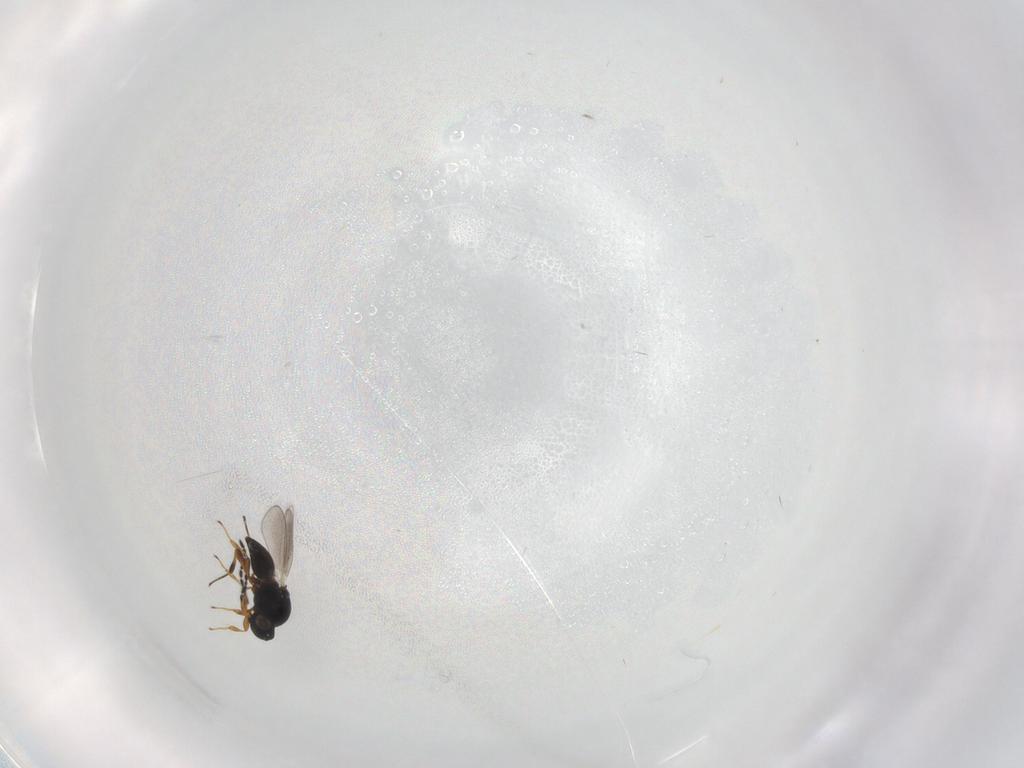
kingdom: Animalia
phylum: Arthropoda
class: Insecta
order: Hymenoptera
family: Platygastridae
